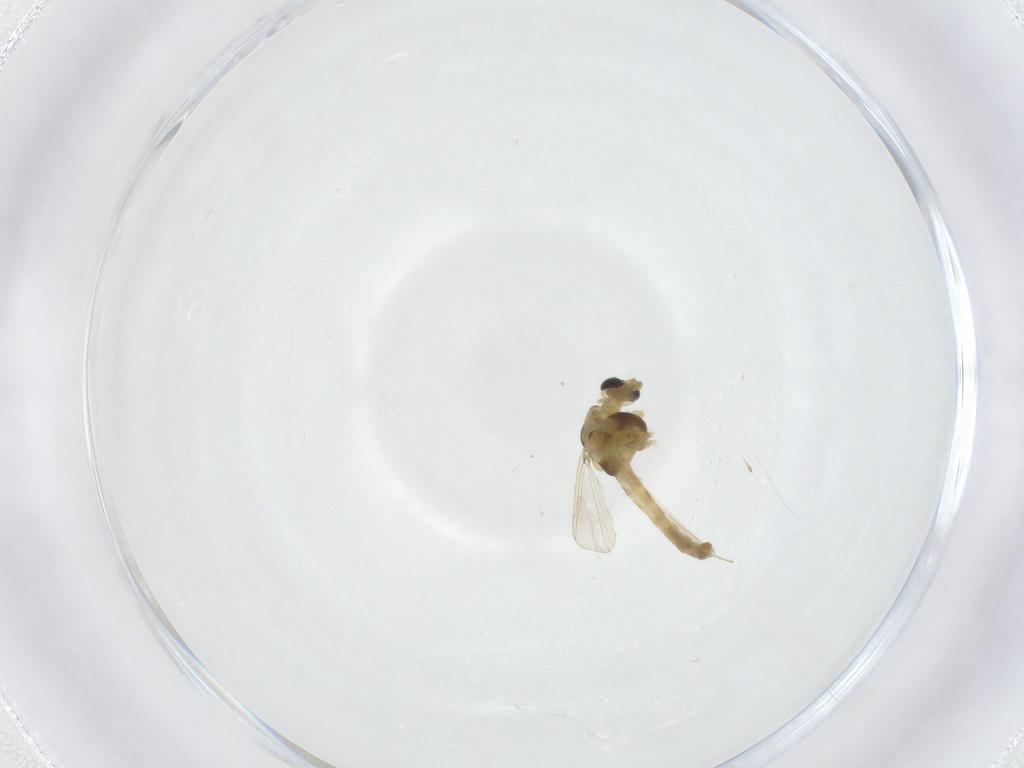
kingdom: Animalia
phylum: Arthropoda
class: Insecta
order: Diptera
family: Chironomidae
